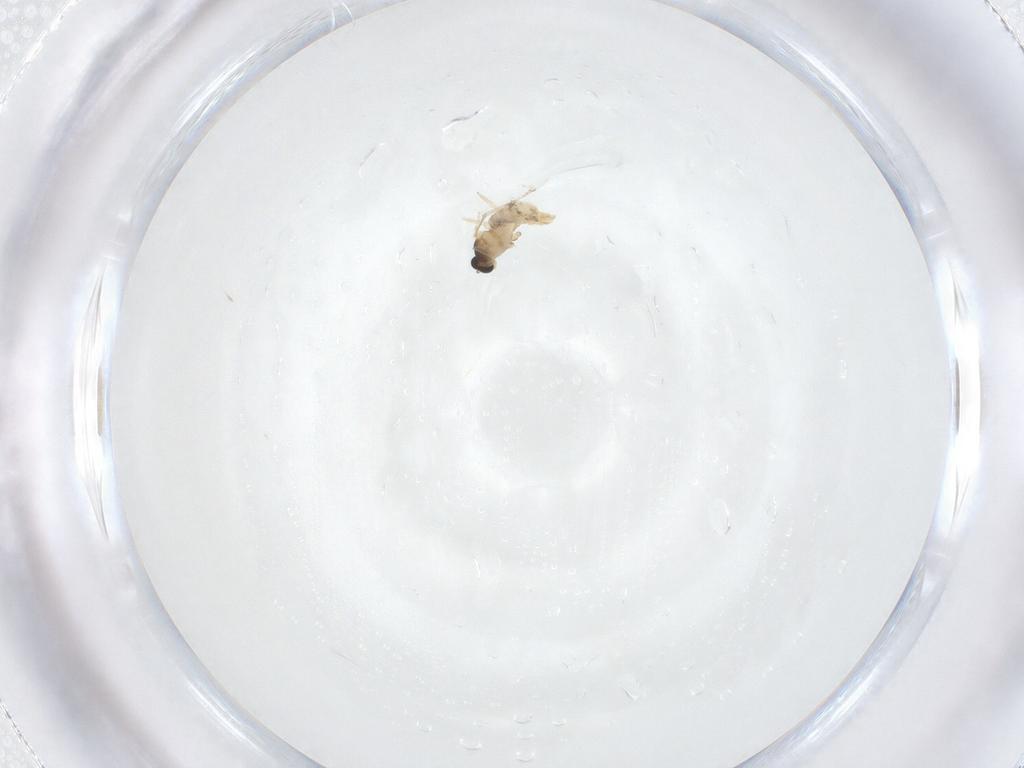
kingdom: Animalia
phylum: Arthropoda
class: Insecta
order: Diptera
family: Cecidomyiidae
